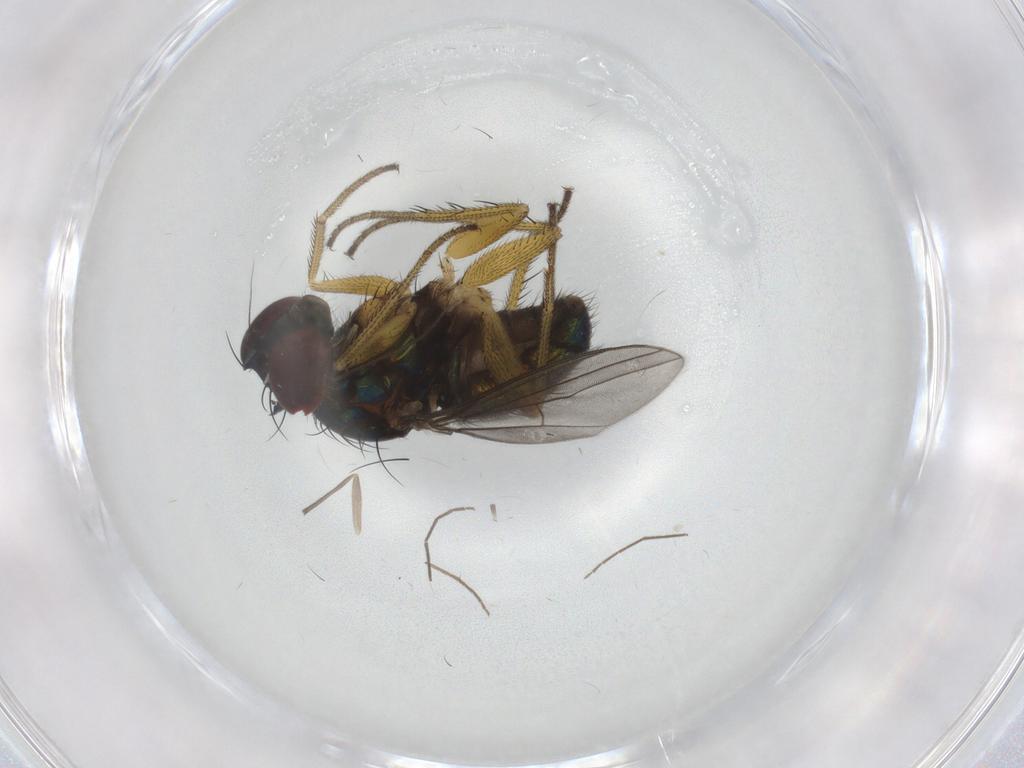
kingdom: Animalia
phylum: Arthropoda
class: Insecta
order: Diptera
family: Dolichopodidae
